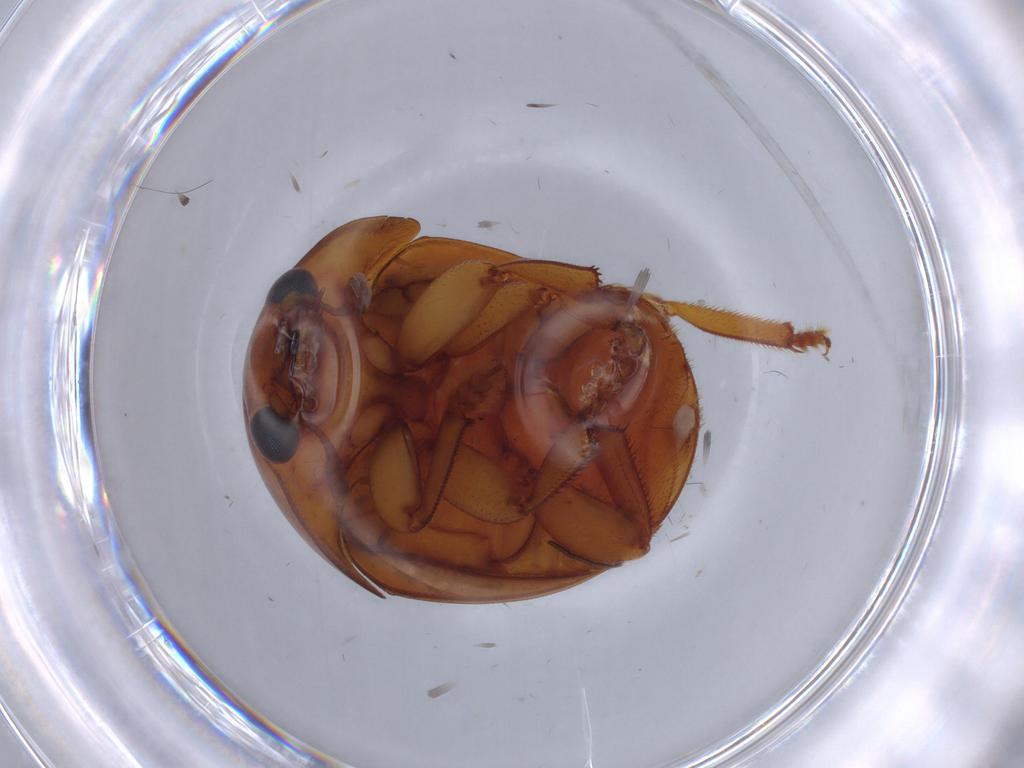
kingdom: Animalia
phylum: Arthropoda
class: Insecta
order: Coleoptera
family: Nitidulidae
